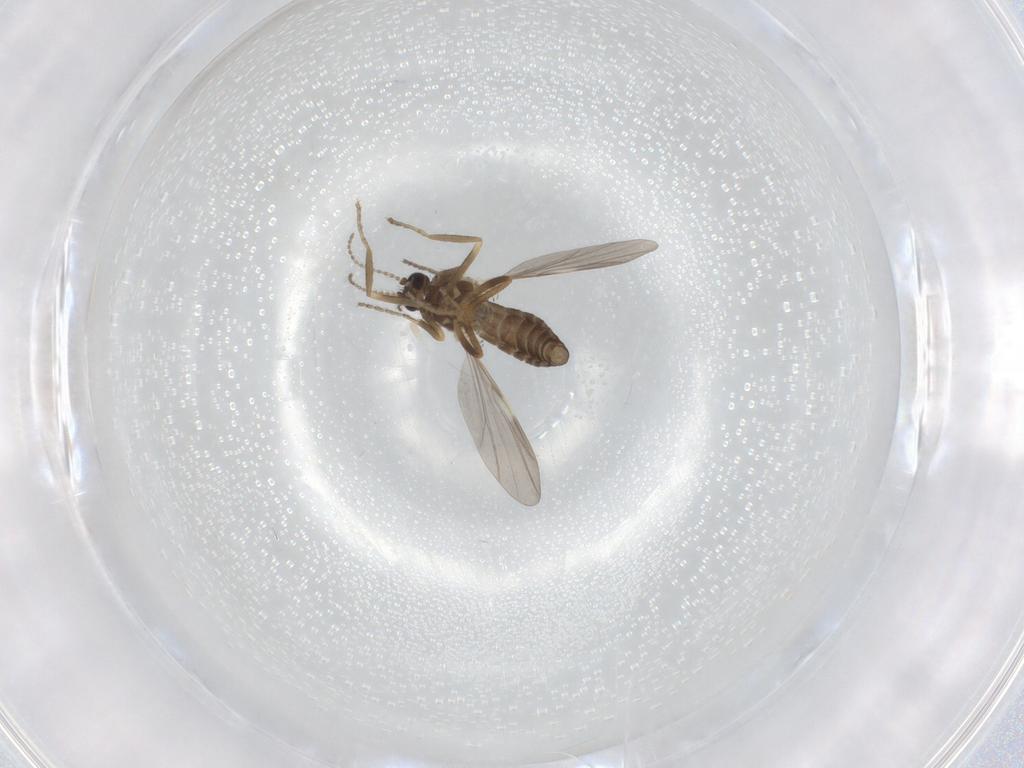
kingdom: Animalia
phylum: Arthropoda
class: Insecta
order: Diptera
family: Ceratopogonidae
